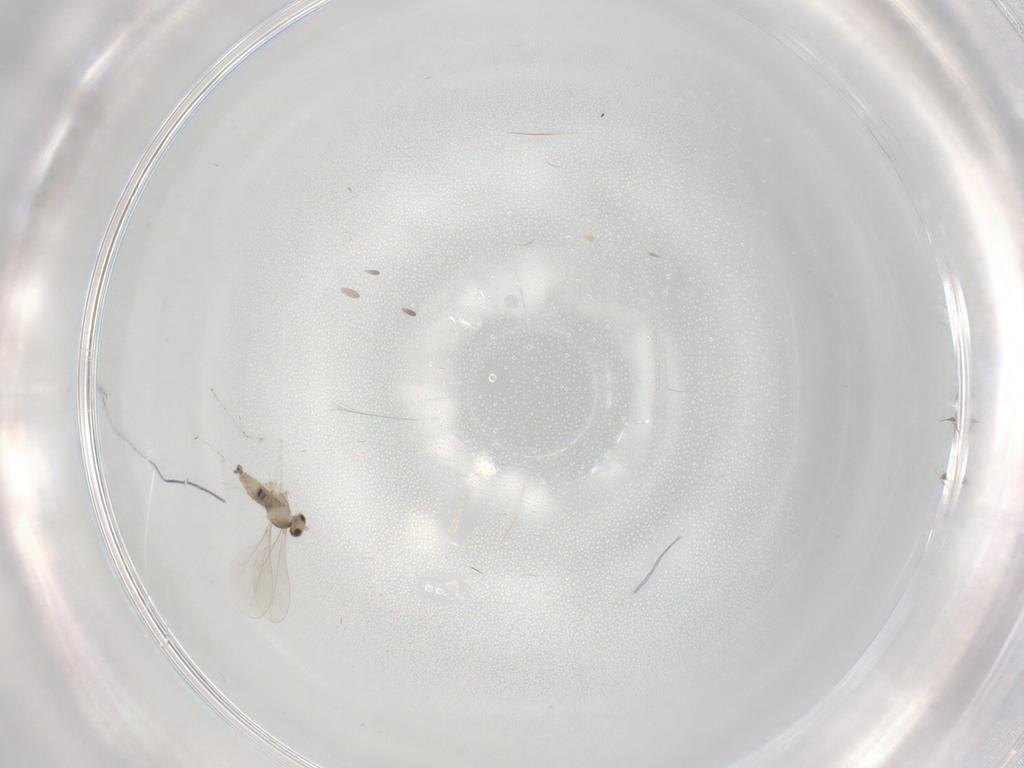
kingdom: Animalia
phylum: Arthropoda
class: Insecta
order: Diptera
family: Cecidomyiidae
